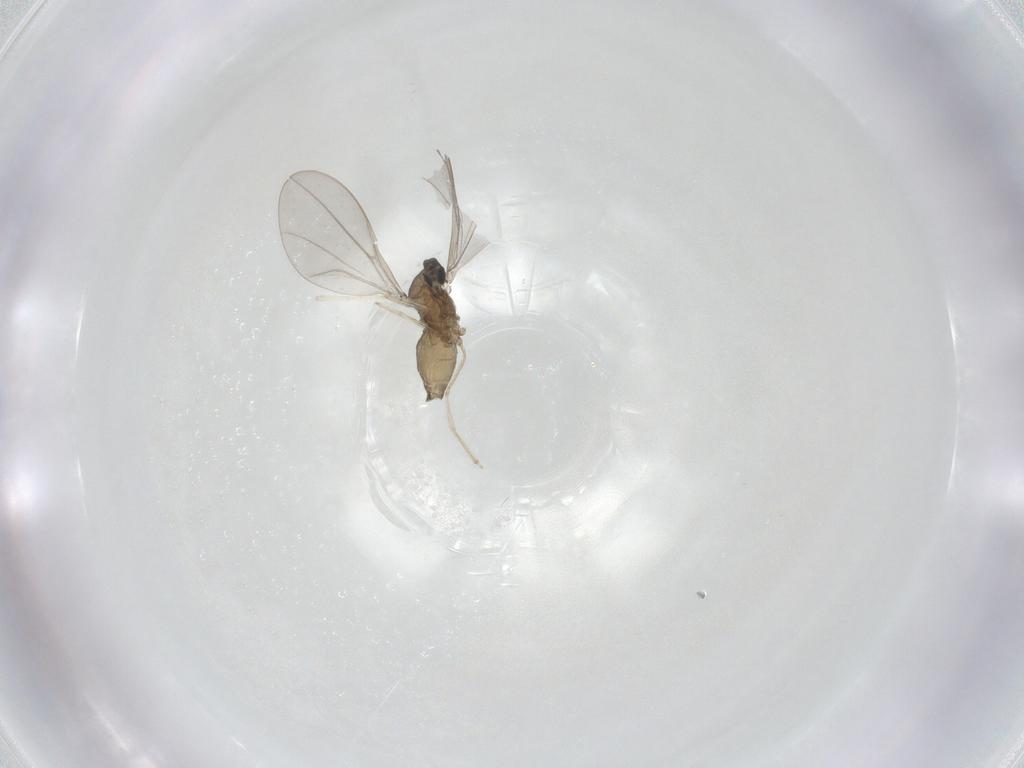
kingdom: Animalia
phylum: Arthropoda
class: Insecta
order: Diptera
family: Cecidomyiidae
